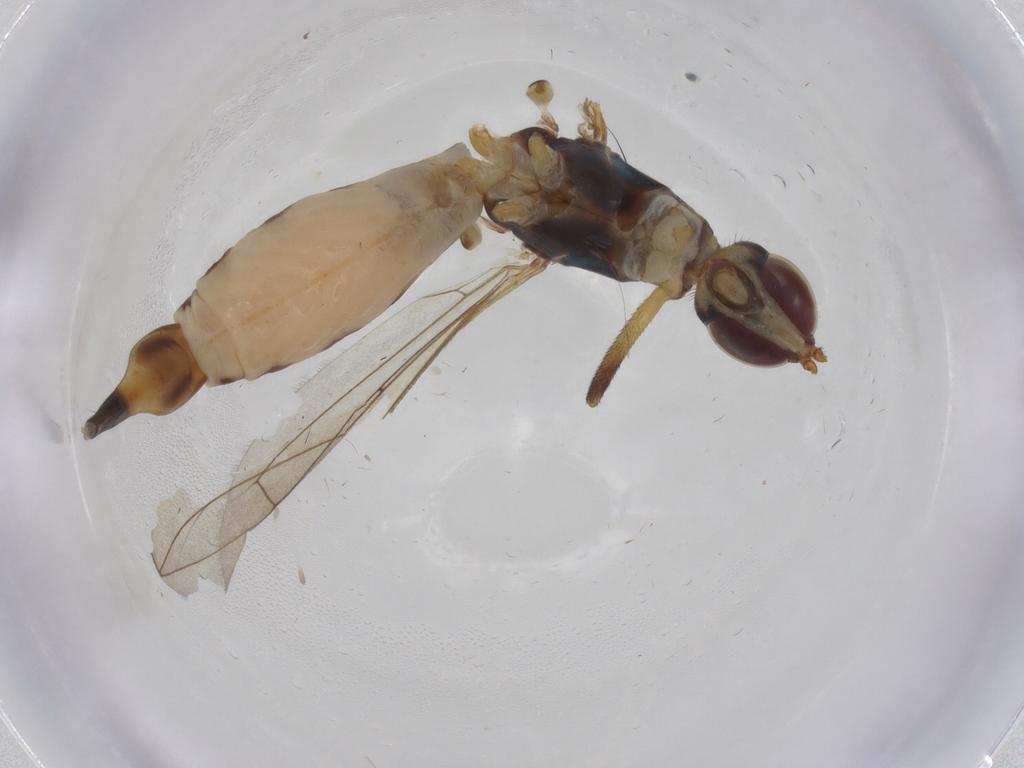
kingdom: Animalia
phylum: Arthropoda
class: Insecta
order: Diptera
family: Micropezidae
